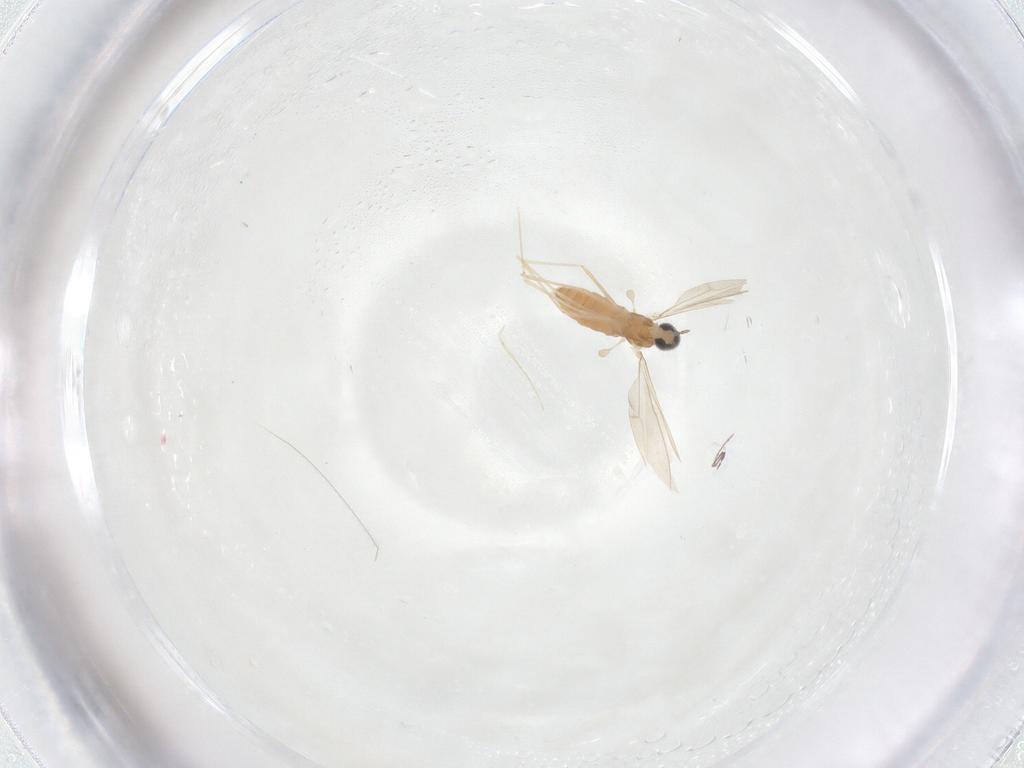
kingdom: Animalia
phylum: Arthropoda
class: Insecta
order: Diptera
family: Cecidomyiidae
